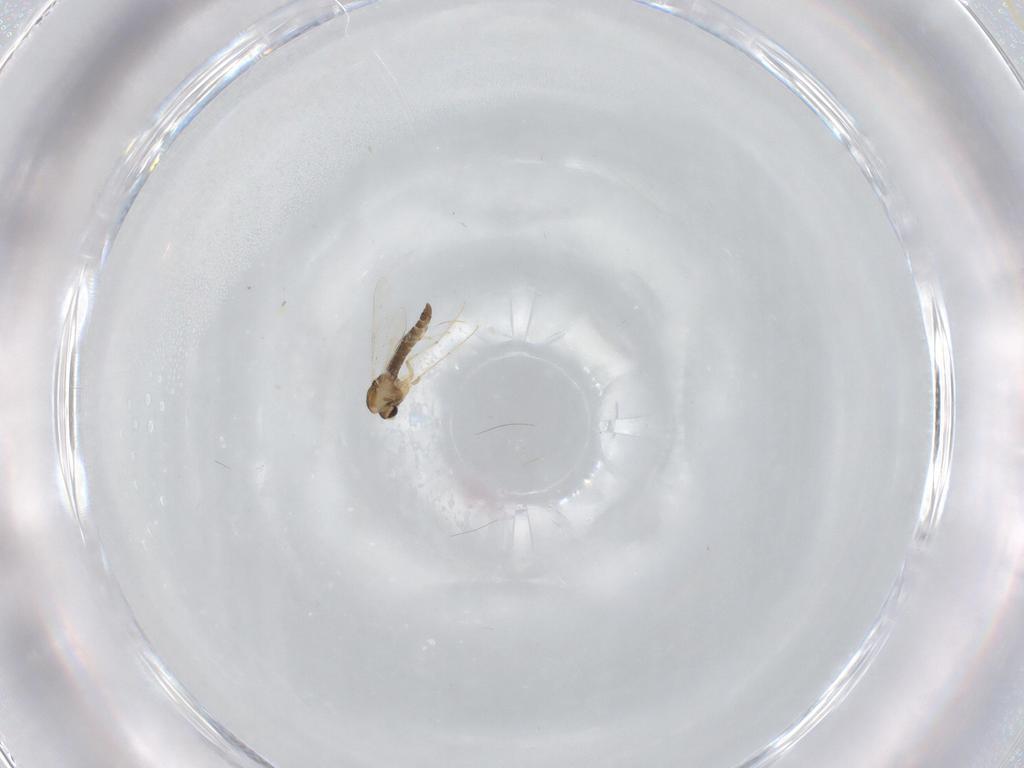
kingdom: Animalia
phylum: Arthropoda
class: Insecta
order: Diptera
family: Chironomidae
